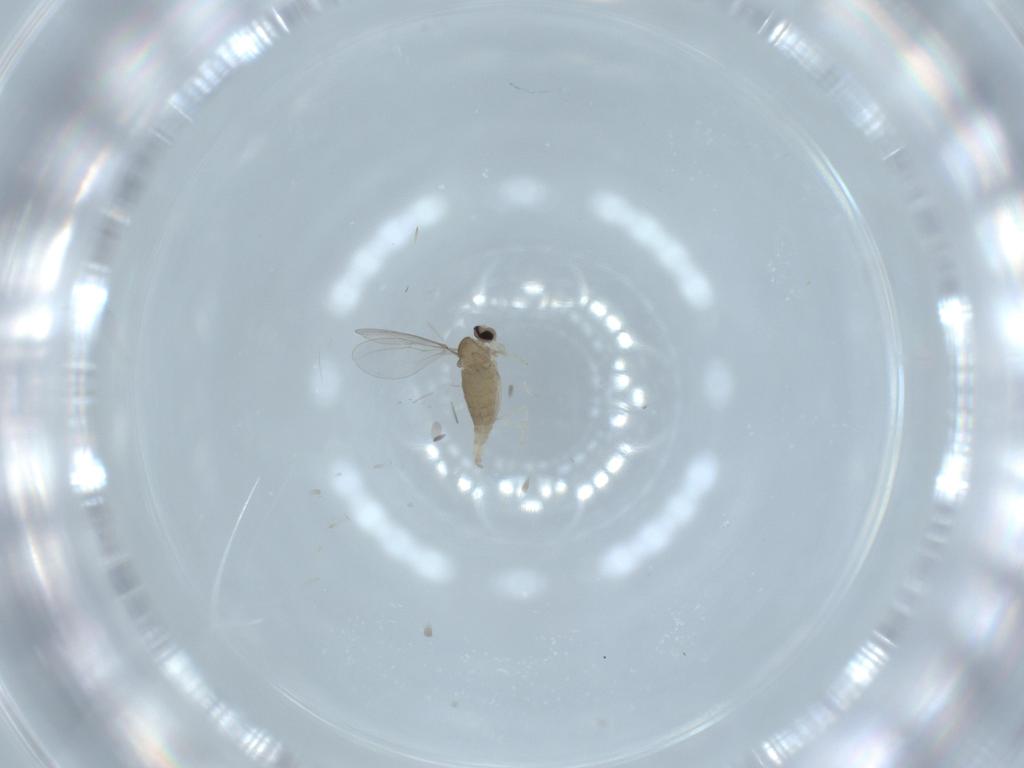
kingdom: Animalia
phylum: Arthropoda
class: Insecta
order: Diptera
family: Cecidomyiidae
